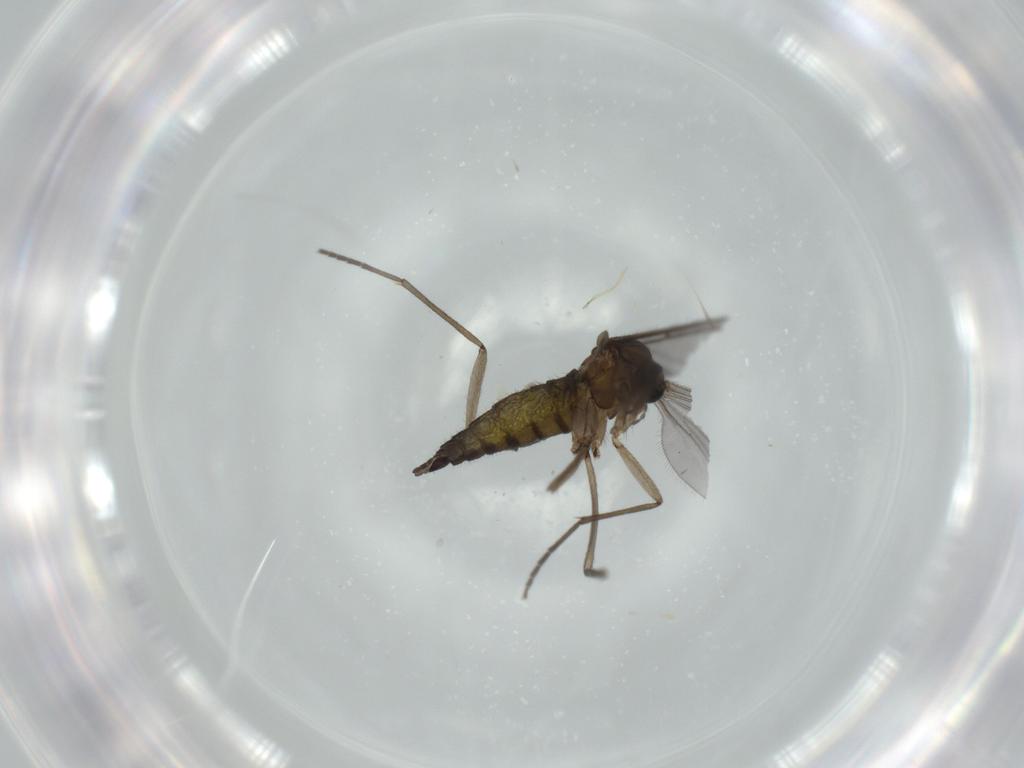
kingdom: Animalia
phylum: Arthropoda
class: Insecta
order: Diptera
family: Sciaridae
